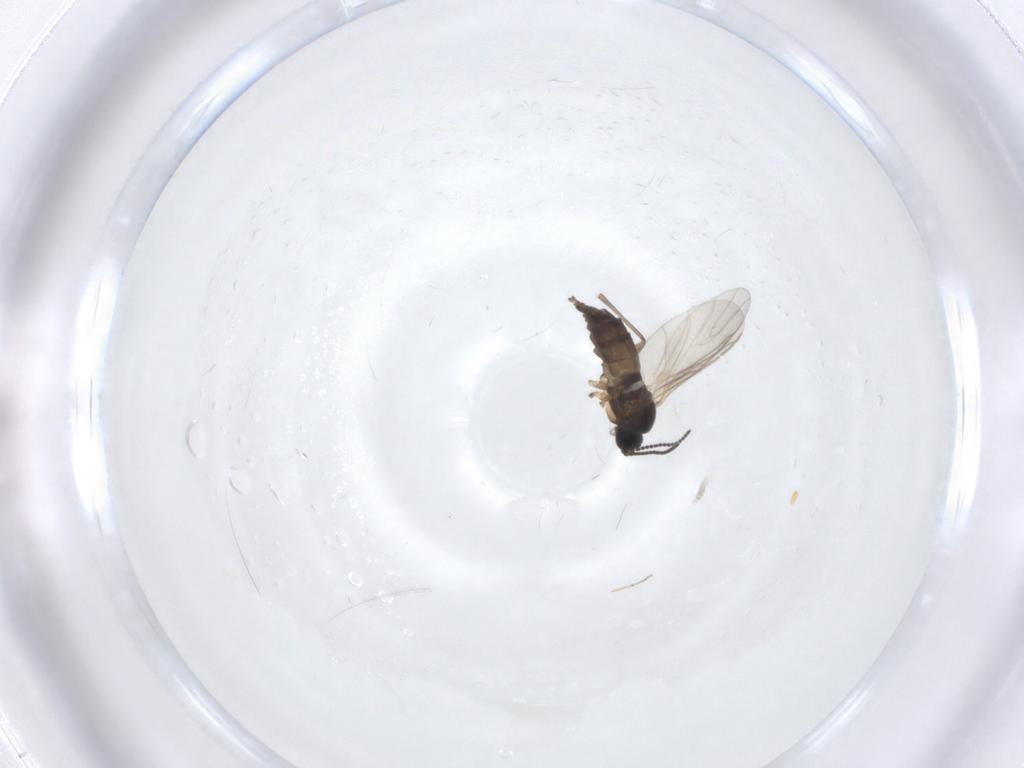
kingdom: Animalia
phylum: Arthropoda
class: Insecta
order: Diptera
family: Sciaridae
